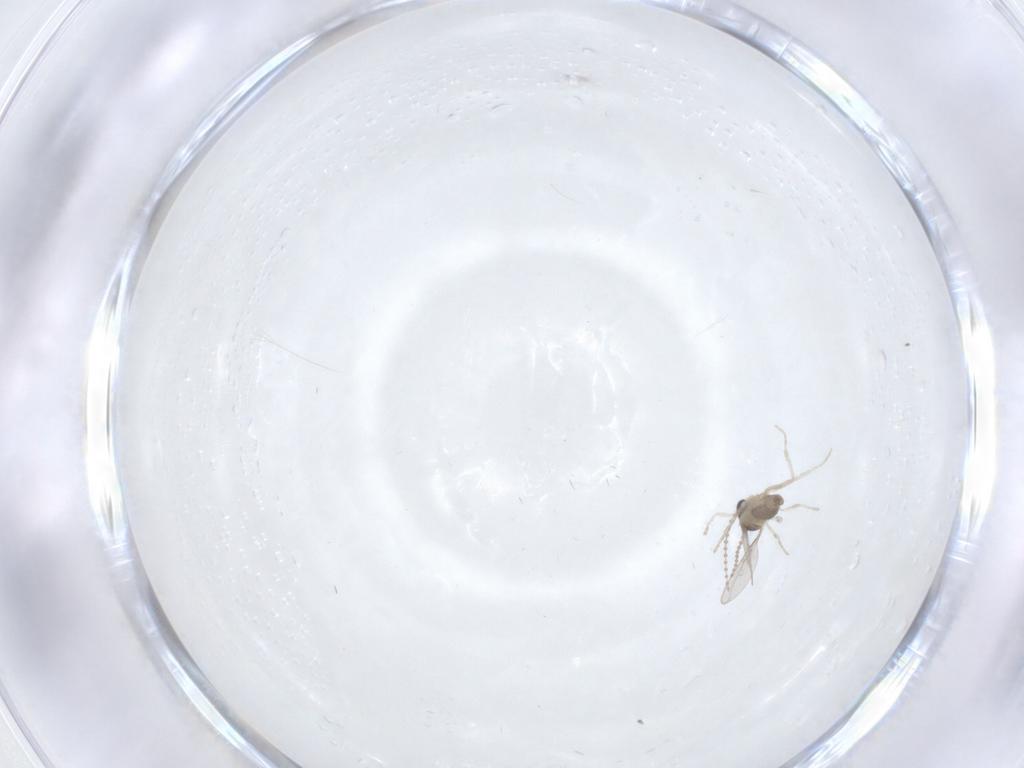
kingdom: Animalia
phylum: Arthropoda
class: Insecta
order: Diptera
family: Cecidomyiidae
